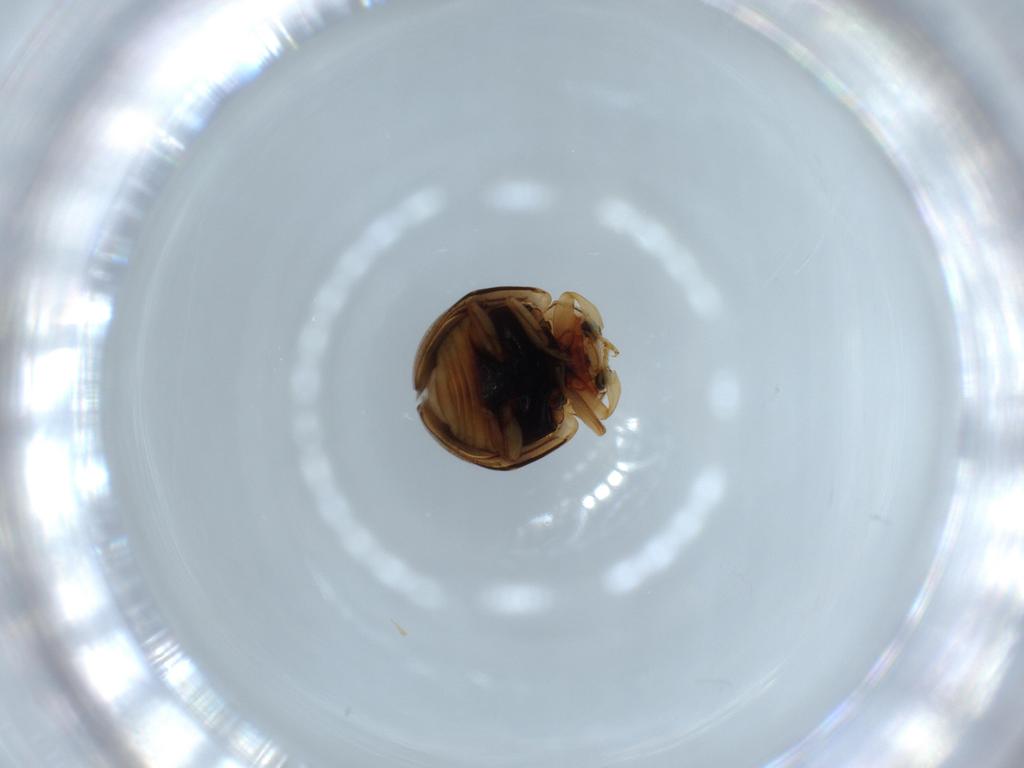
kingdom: Animalia
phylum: Arthropoda
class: Insecta
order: Coleoptera
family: Coccinellidae
